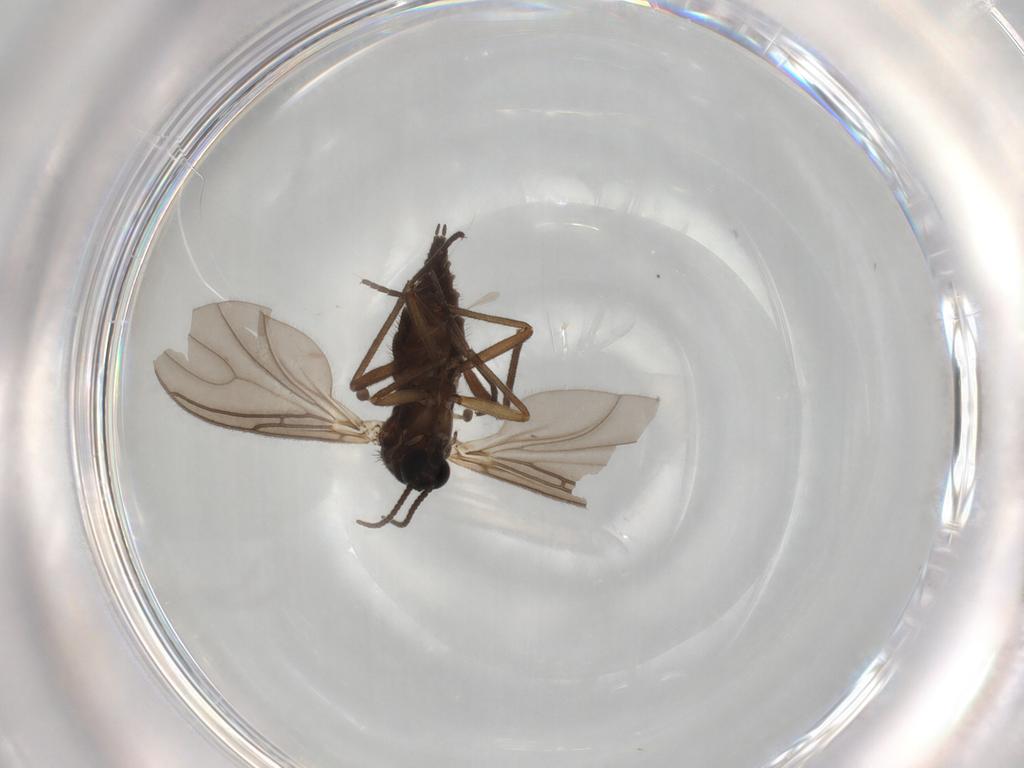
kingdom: Animalia
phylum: Arthropoda
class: Insecta
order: Diptera
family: Sciaridae
